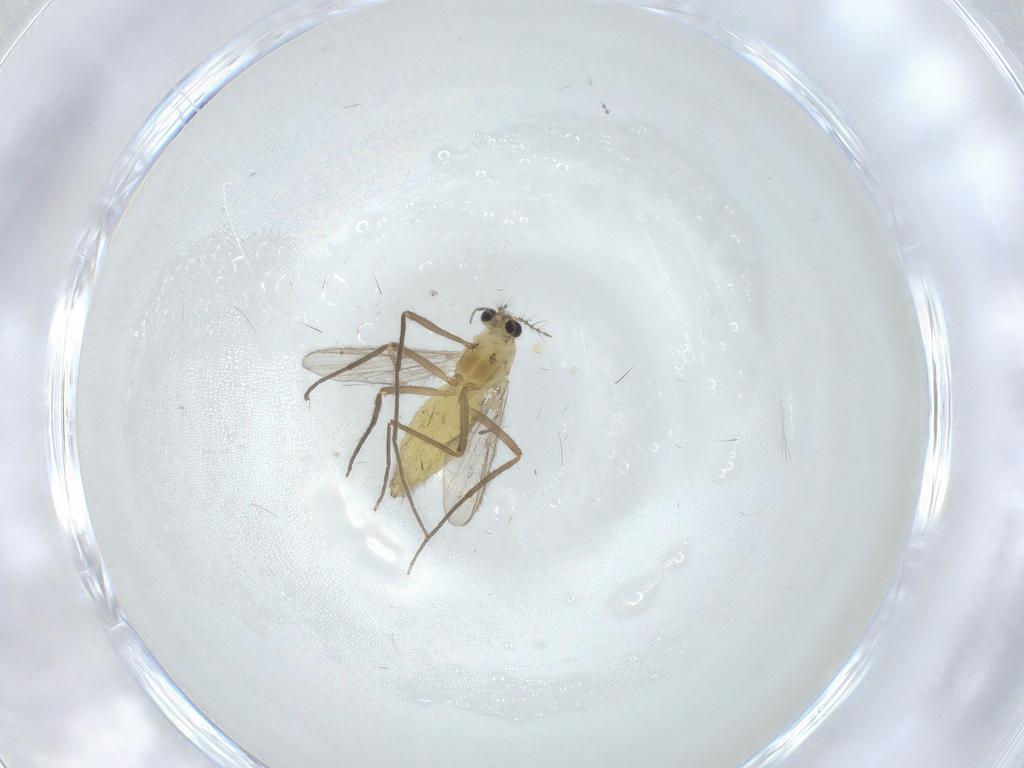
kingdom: Animalia
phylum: Arthropoda
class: Insecta
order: Diptera
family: Chironomidae
